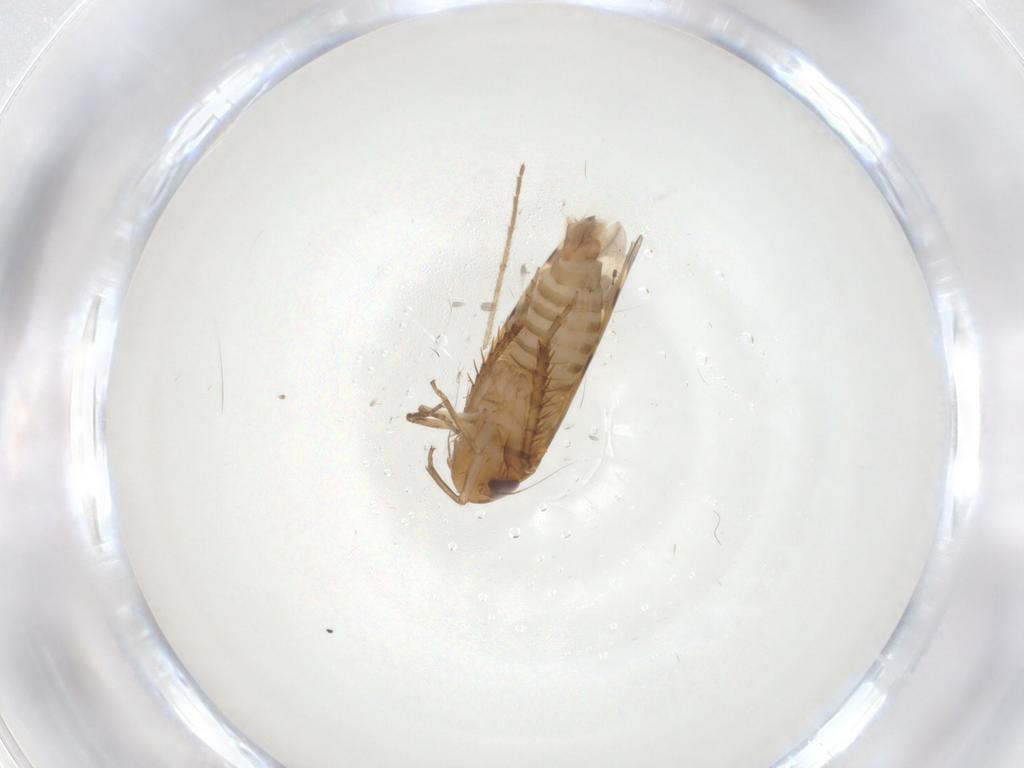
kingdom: Animalia
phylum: Arthropoda
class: Insecta
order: Hemiptera
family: Cicadellidae
